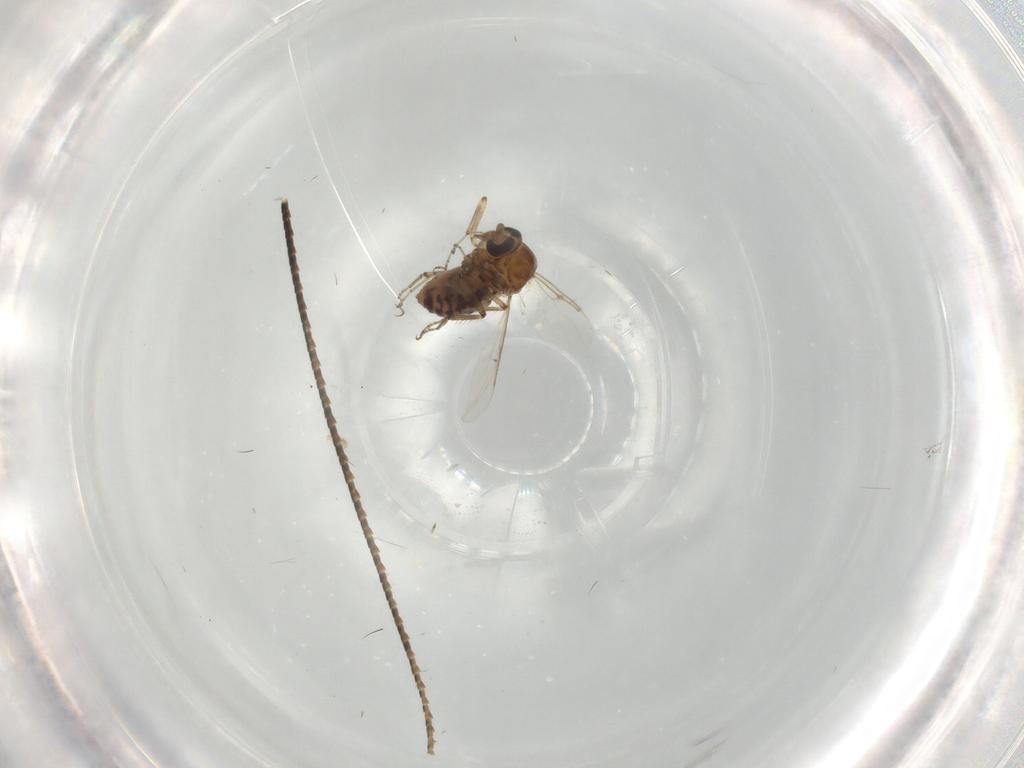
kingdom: Animalia
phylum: Arthropoda
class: Insecta
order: Diptera
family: Ceratopogonidae
